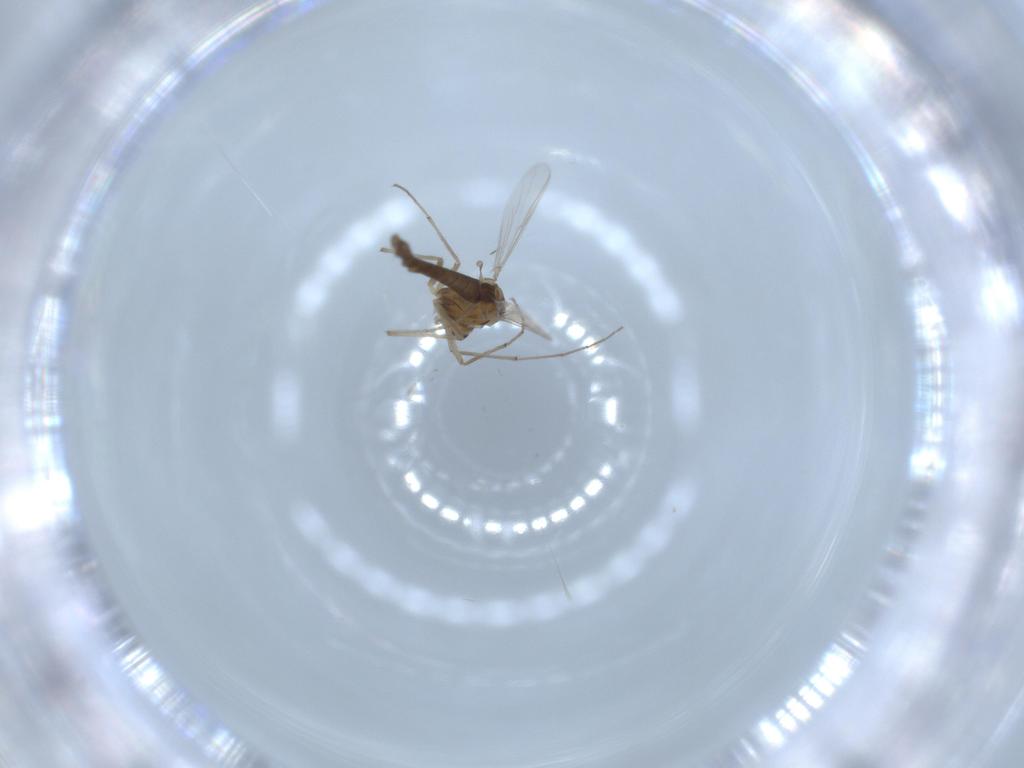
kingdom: Animalia
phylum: Arthropoda
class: Insecta
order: Diptera
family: Chironomidae
